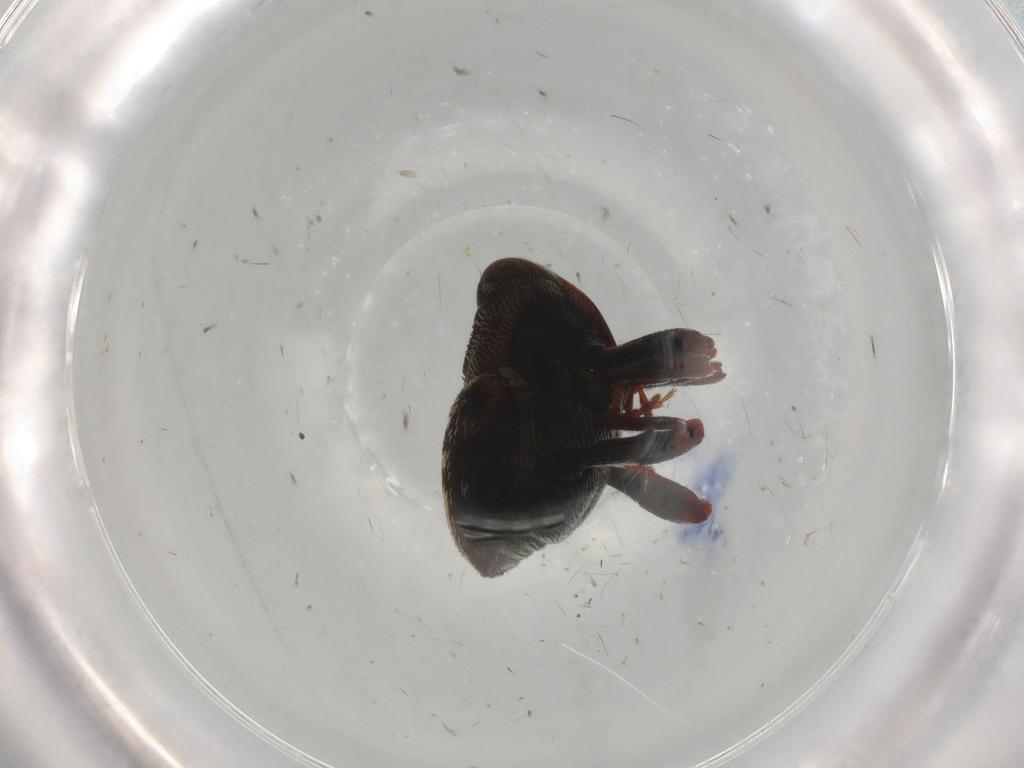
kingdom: Animalia
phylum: Arthropoda
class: Insecta
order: Coleoptera
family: Curculionidae
